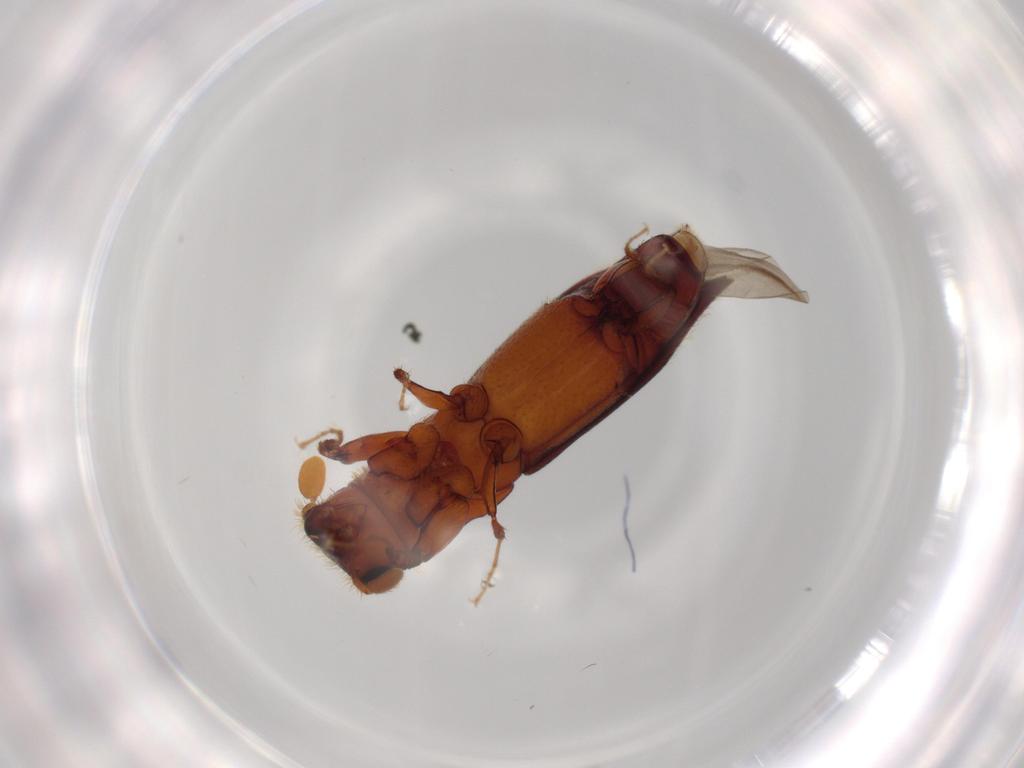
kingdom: Animalia
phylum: Arthropoda
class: Insecta
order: Coleoptera
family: Curculionidae
